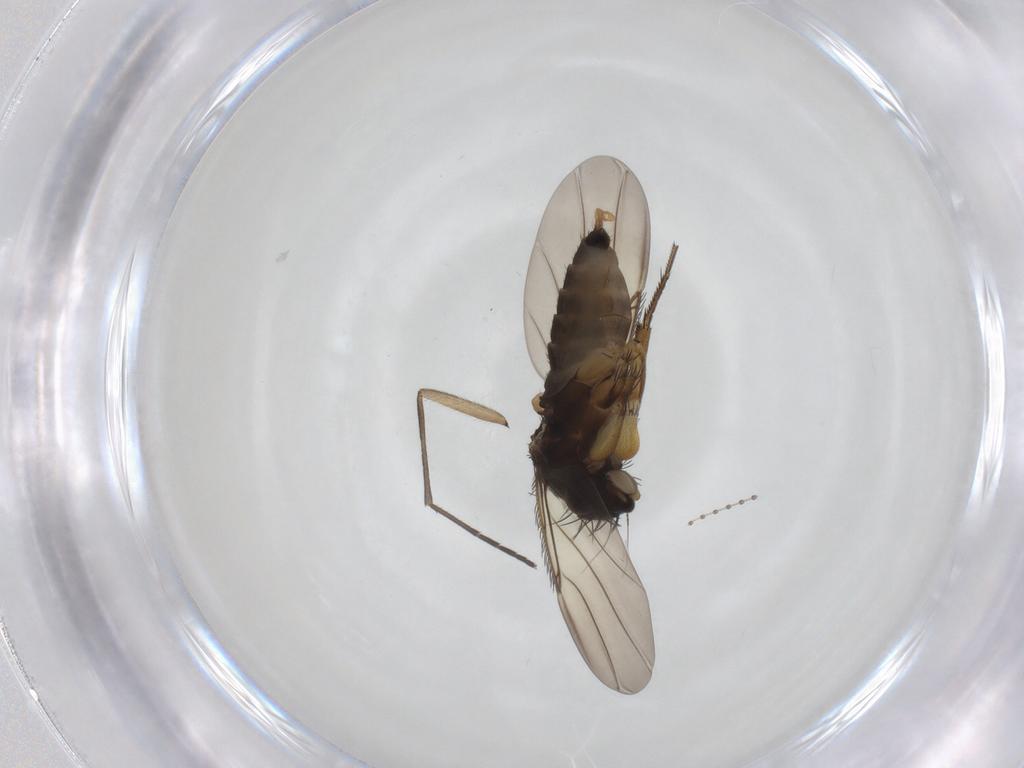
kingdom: Animalia
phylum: Arthropoda
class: Insecta
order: Diptera
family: Phoridae
